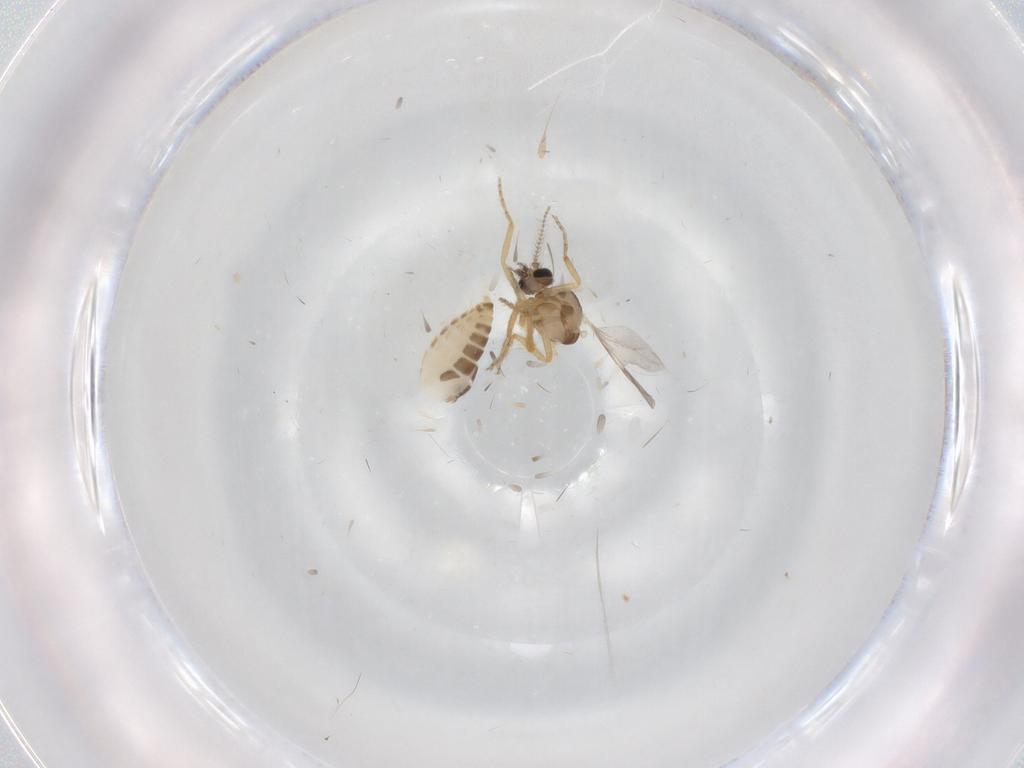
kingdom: Animalia
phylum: Arthropoda
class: Insecta
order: Diptera
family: Ceratopogonidae
